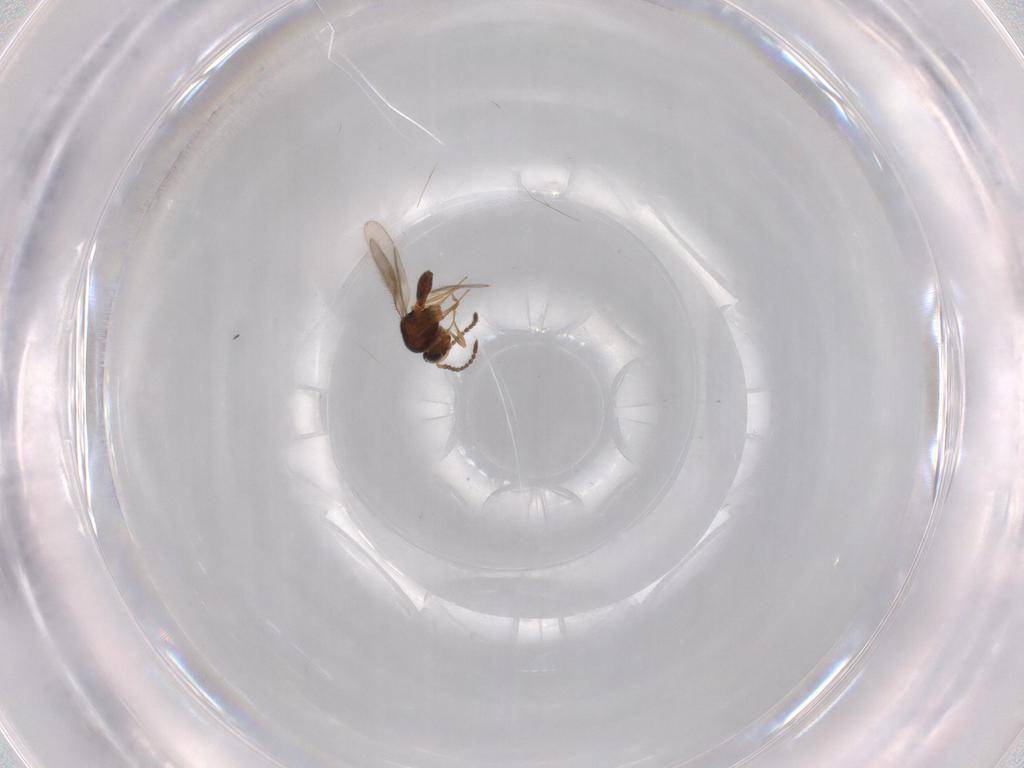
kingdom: Animalia
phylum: Arthropoda
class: Insecta
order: Hymenoptera
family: Scelionidae
